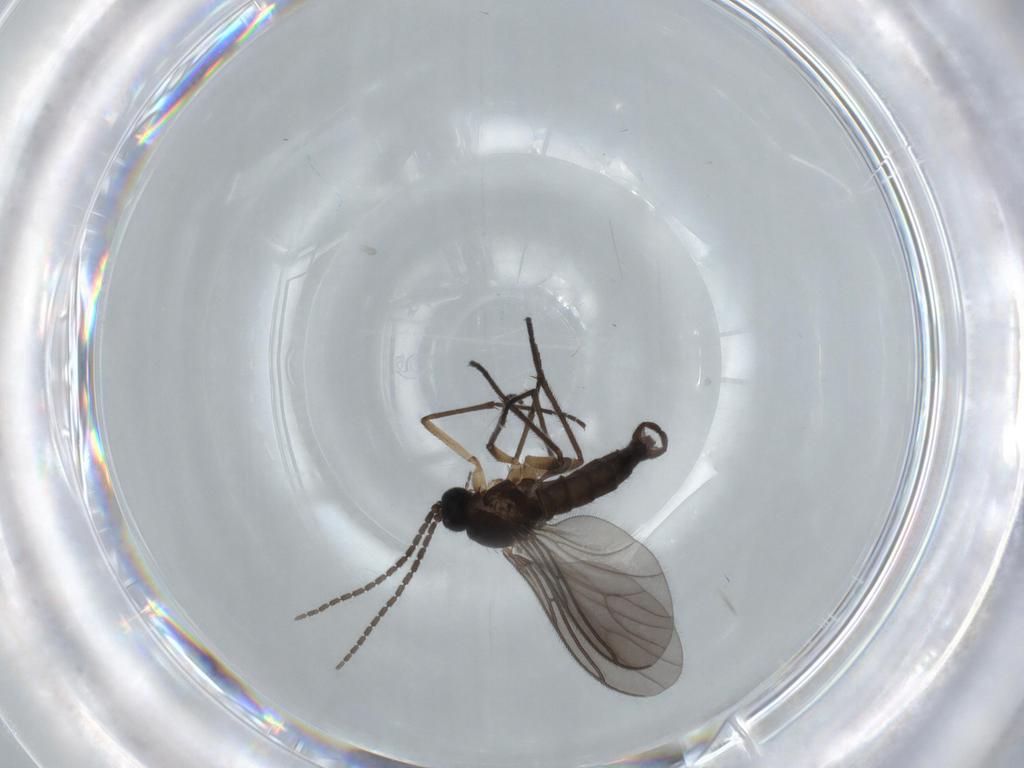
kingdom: Animalia
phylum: Arthropoda
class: Insecta
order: Diptera
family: Sciaridae
